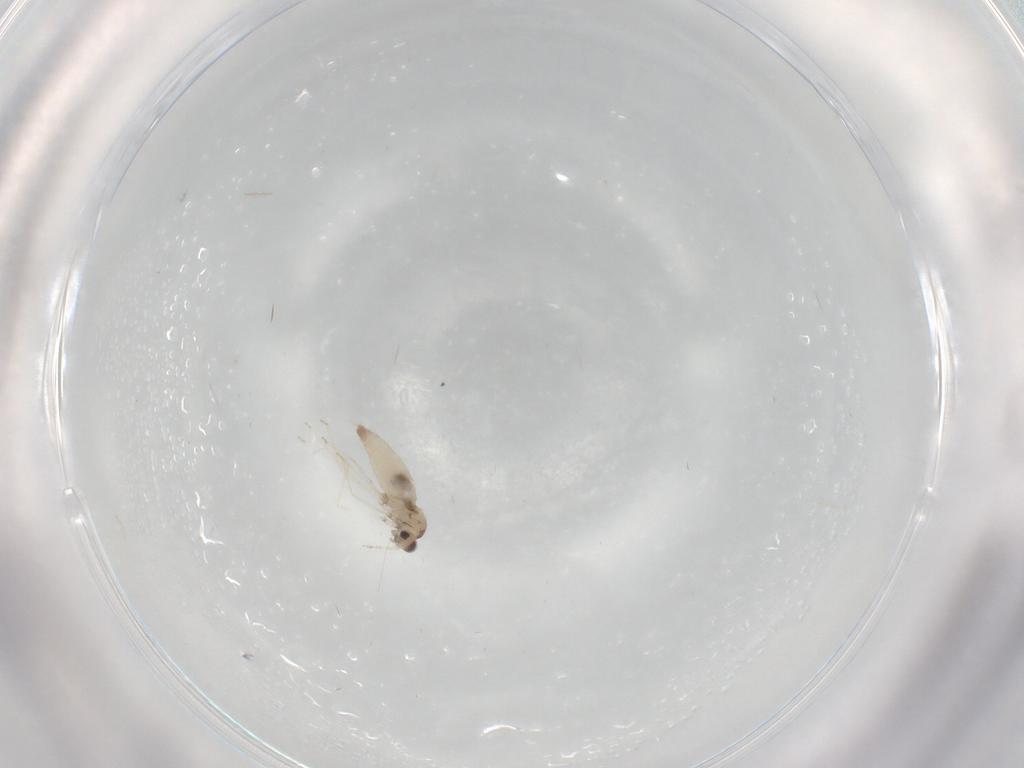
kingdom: Animalia
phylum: Arthropoda
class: Insecta
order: Diptera
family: Cecidomyiidae
